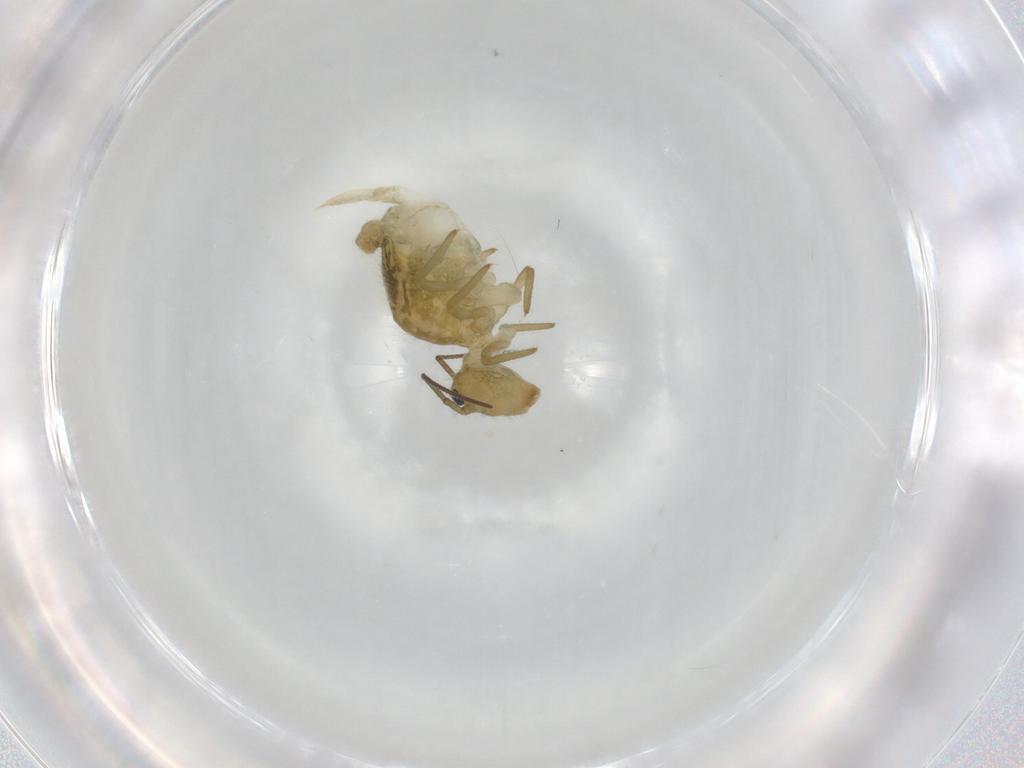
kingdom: Animalia
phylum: Arthropoda
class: Collembola
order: Symphypleona
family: Sminthuridae
